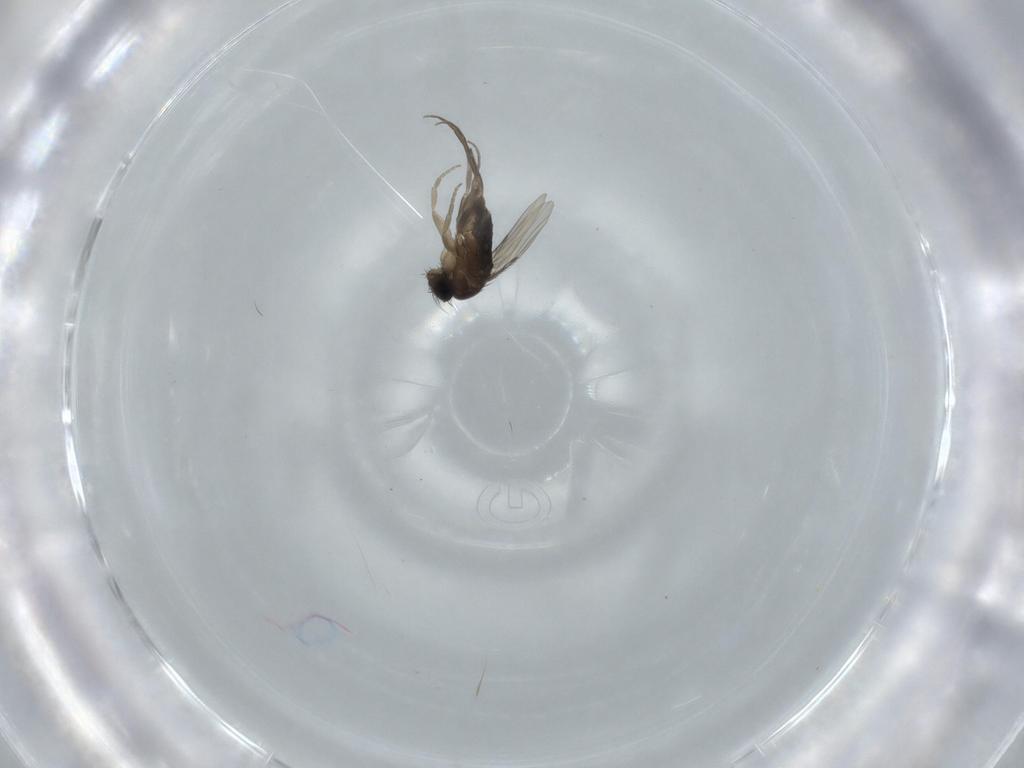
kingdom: Animalia
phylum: Arthropoda
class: Insecta
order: Diptera
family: Phoridae
